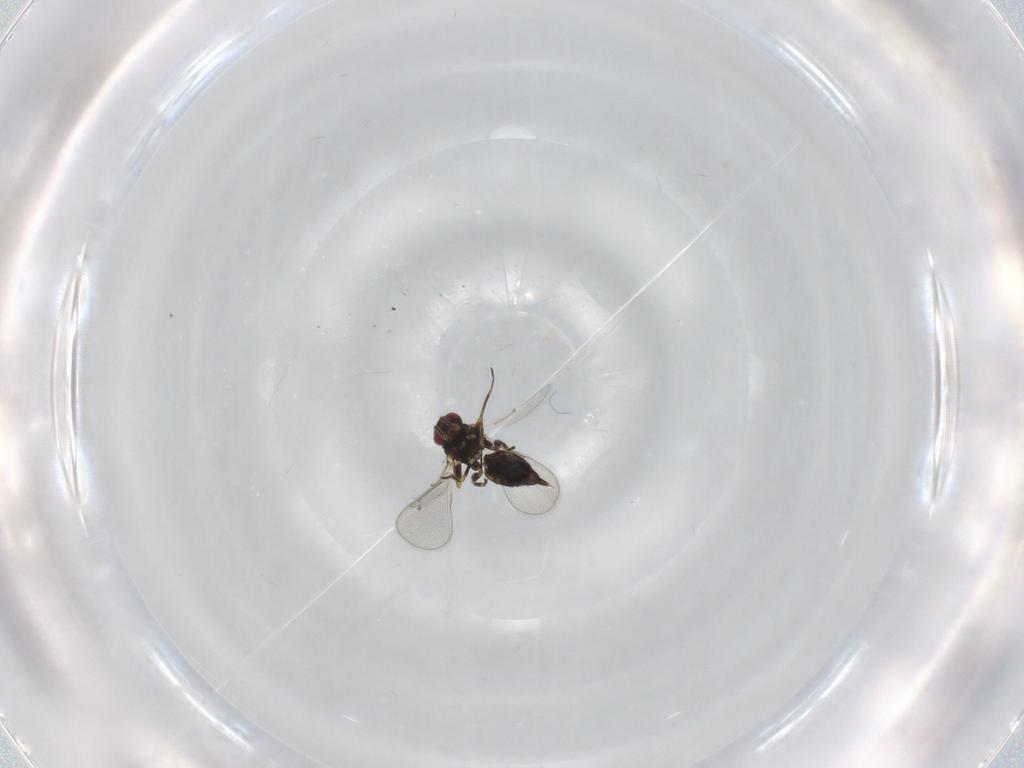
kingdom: Animalia
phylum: Arthropoda
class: Insecta
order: Hymenoptera
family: Eulophidae
